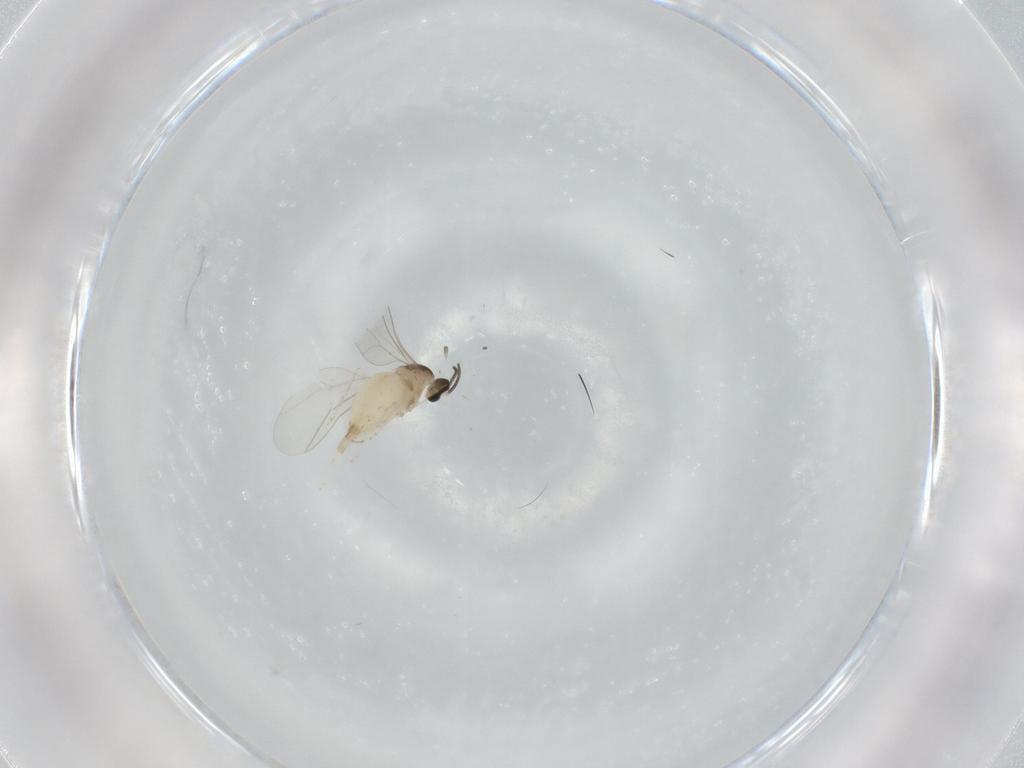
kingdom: Animalia
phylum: Arthropoda
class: Insecta
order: Diptera
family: Cecidomyiidae
